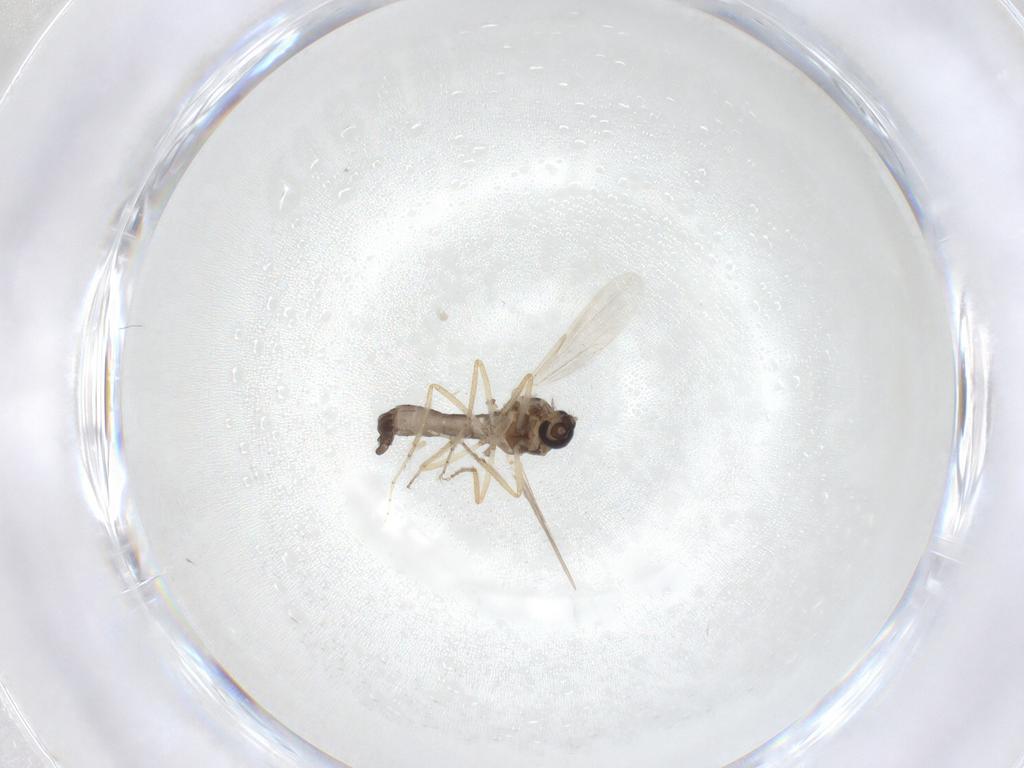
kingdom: Animalia
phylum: Arthropoda
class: Insecta
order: Diptera
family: Ceratopogonidae
